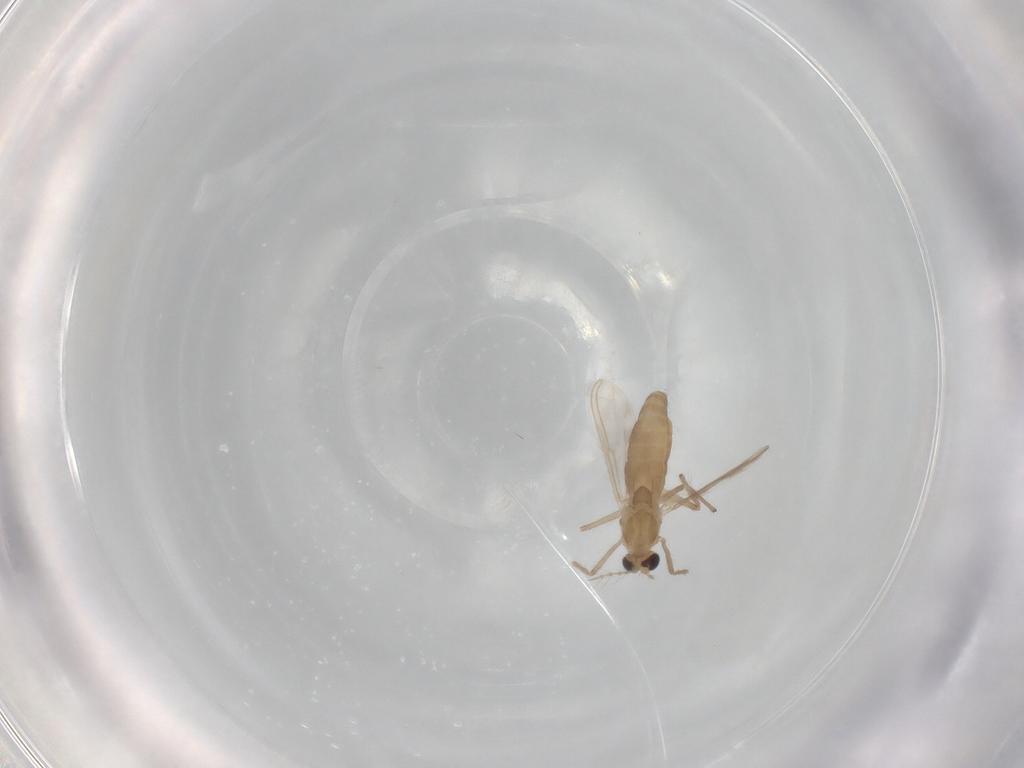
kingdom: Animalia
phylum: Arthropoda
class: Insecta
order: Diptera
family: Chironomidae
